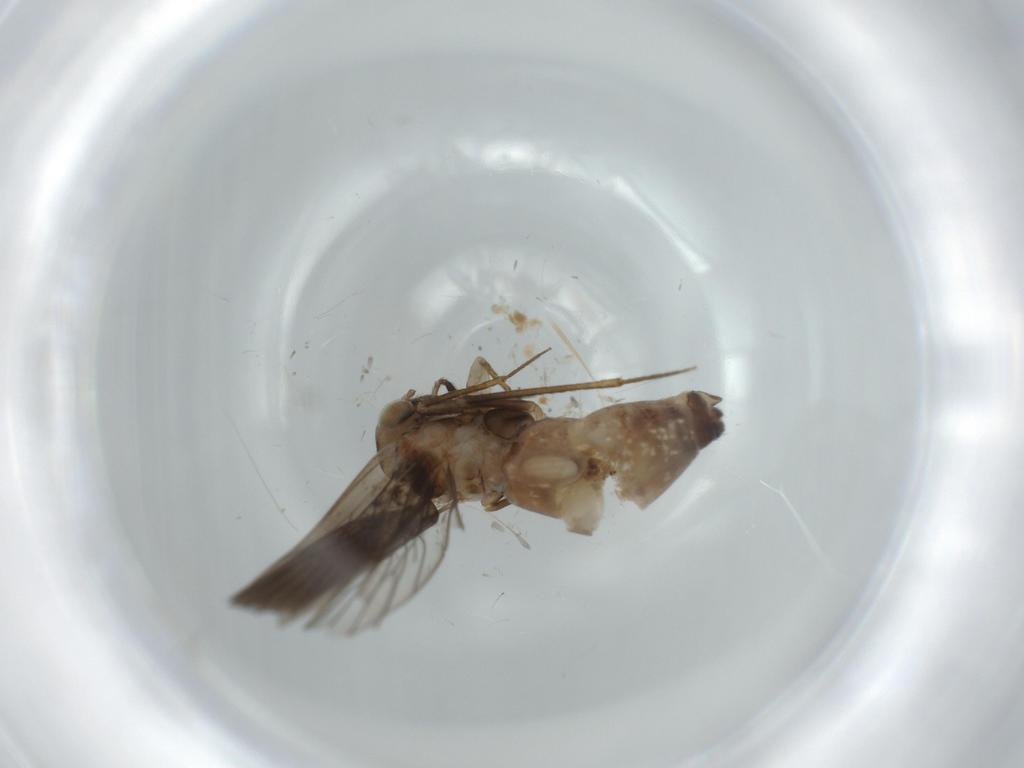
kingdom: Animalia
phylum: Arthropoda
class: Insecta
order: Psocodea
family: Lepidopsocidae
